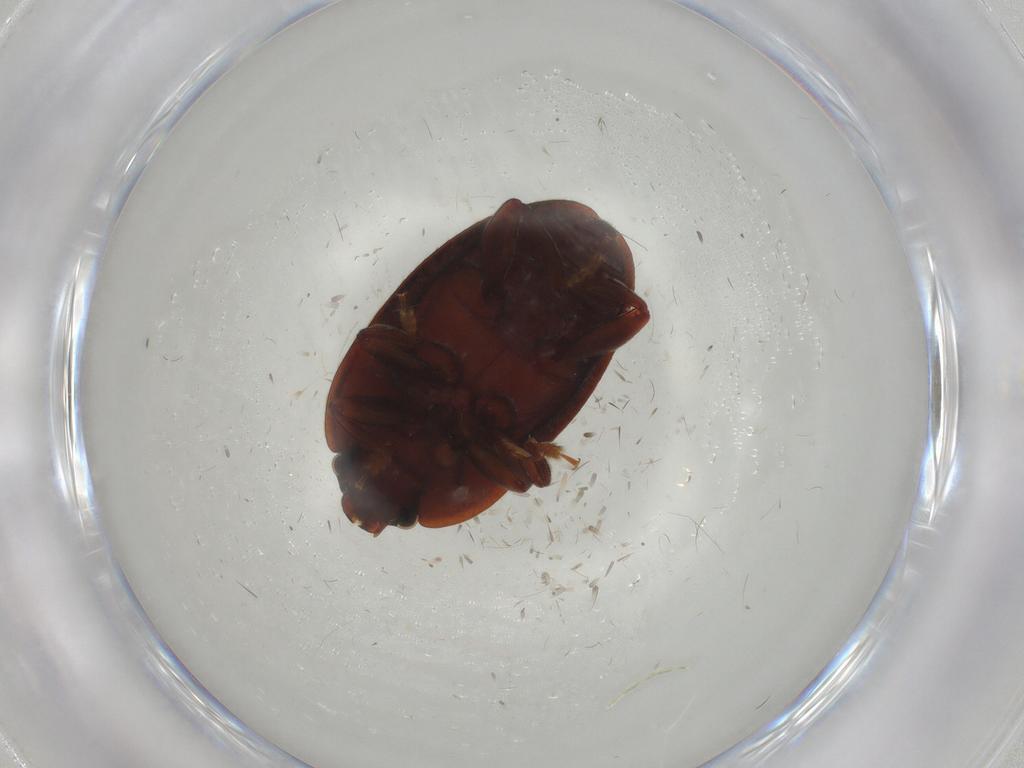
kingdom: Animalia
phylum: Arthropoda
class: Insecta
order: Coleoptera
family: Nitidulidae
